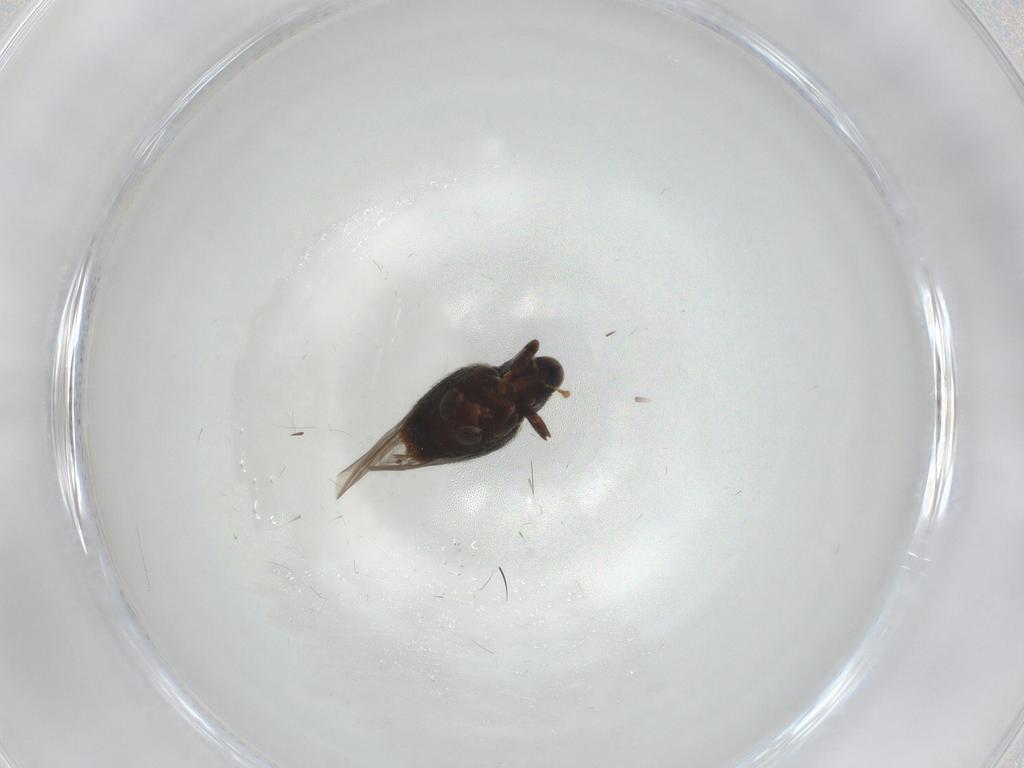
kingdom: Animalia
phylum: Arthropoda
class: Insecta
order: Coleoptera
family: Curculionidae
